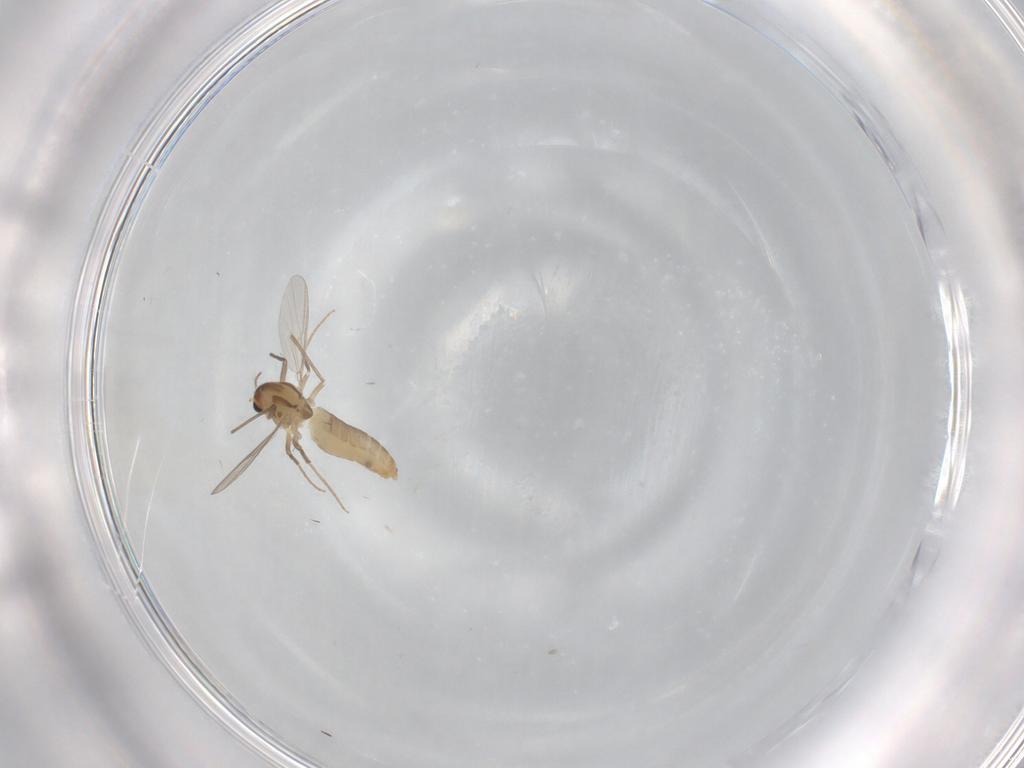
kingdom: Animalia
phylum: Arthropoda
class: Insecta
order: Diptera
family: Chironomidae
